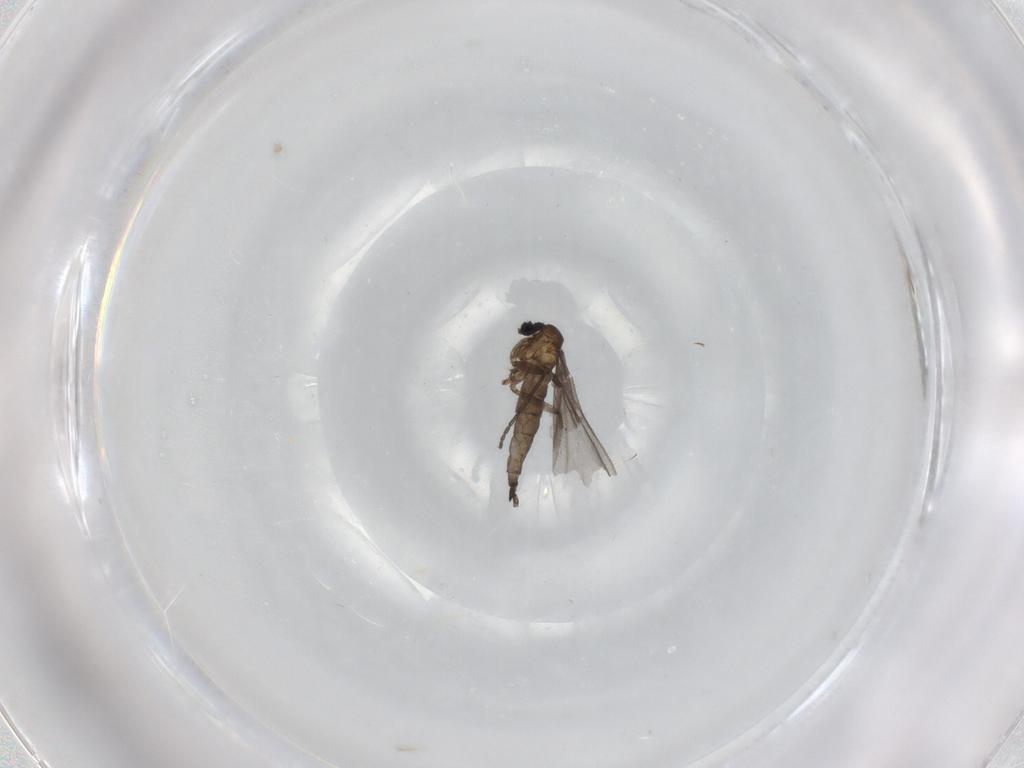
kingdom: Animalia
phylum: Arthropoda
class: Insecta
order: Diptera
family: Sciaridae
